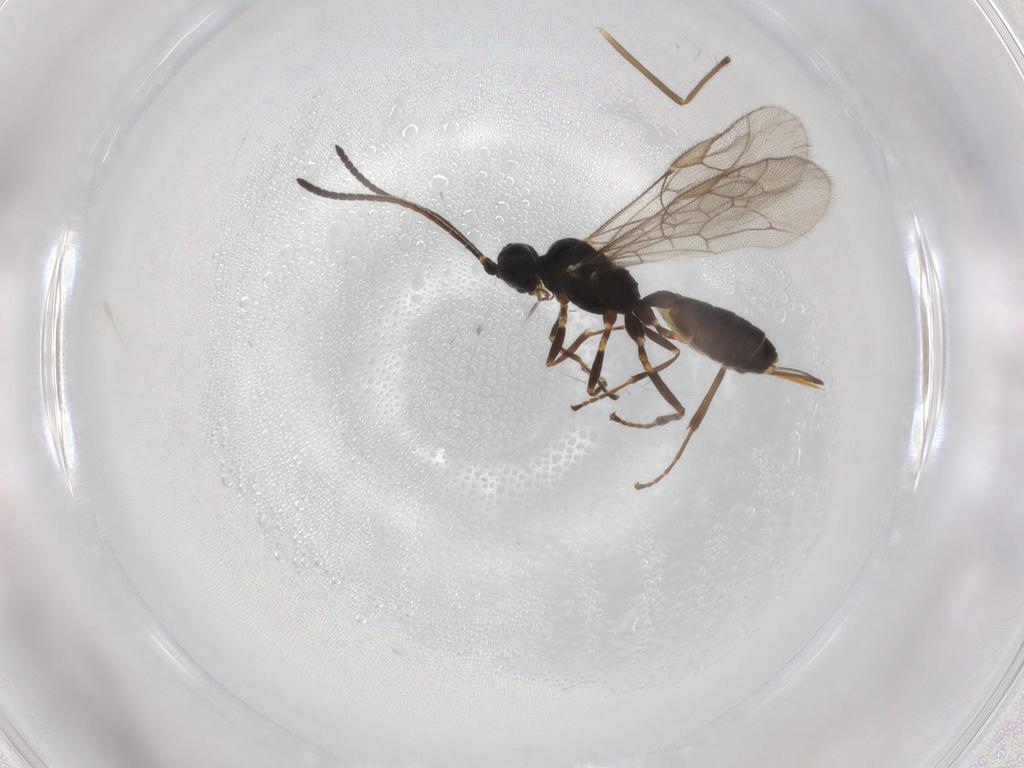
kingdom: Animalia
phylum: Arthropoda
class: Insecta
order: Hymenoptera
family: Ichneumonidae
